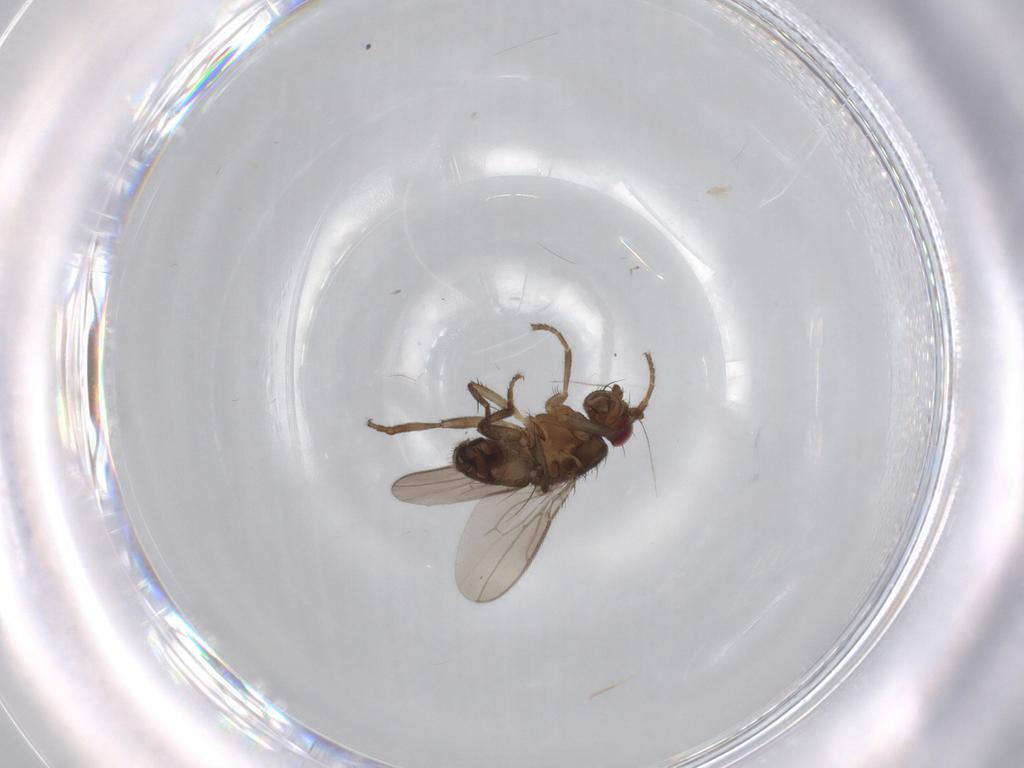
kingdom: Animalia
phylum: Arthropoda
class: Insecta
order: Diptera
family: Sphaeroceridae
